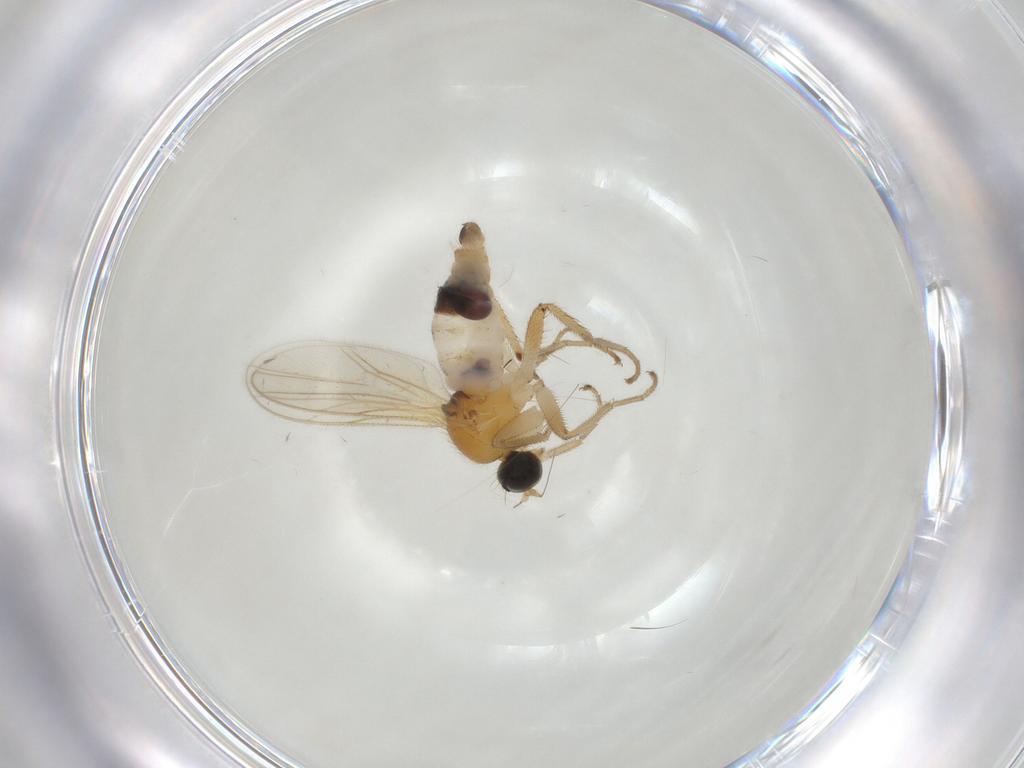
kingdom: Animalia
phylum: Arthropoda
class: Insecta
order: Diptera
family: Hybotidae
